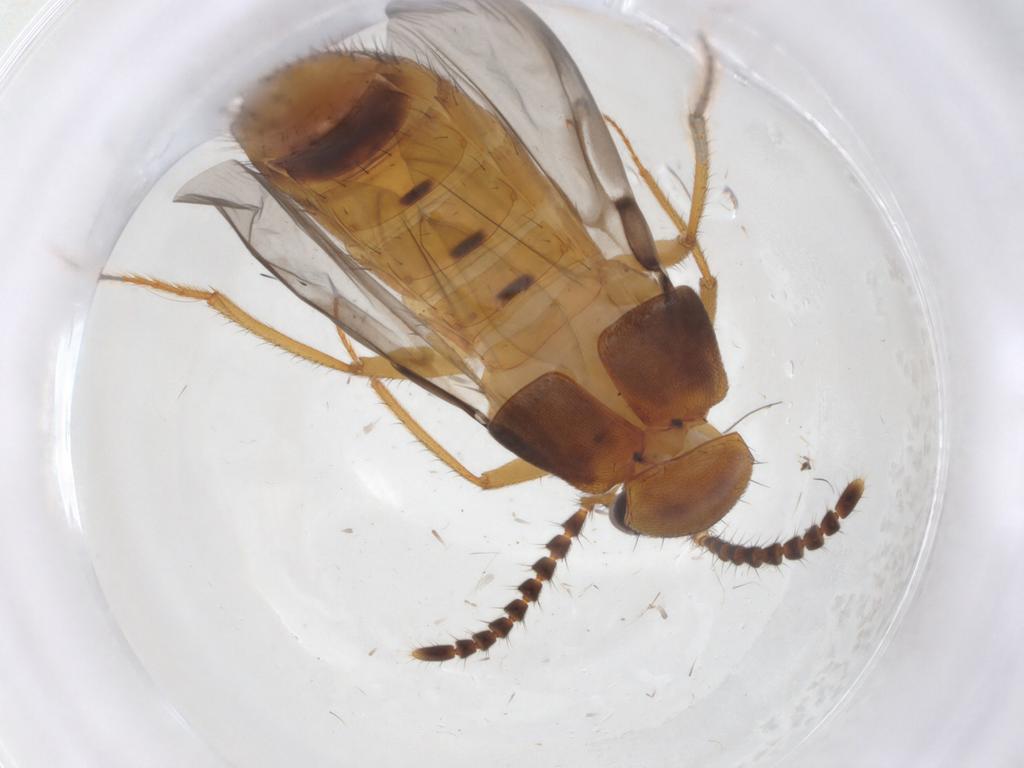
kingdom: Animalia
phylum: Arthropoda
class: Insecta
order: Coleoptera
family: Staphylinidae
